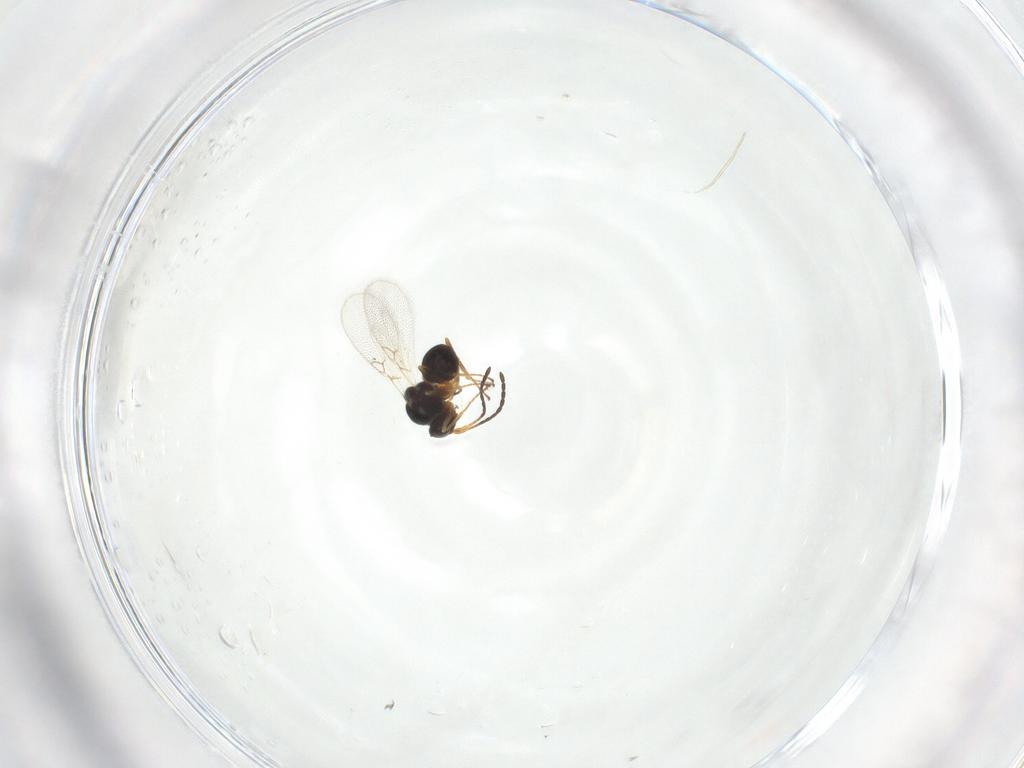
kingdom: Animalia
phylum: Arthropoda
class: Insecta
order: Hymenoptera
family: Figitidae
